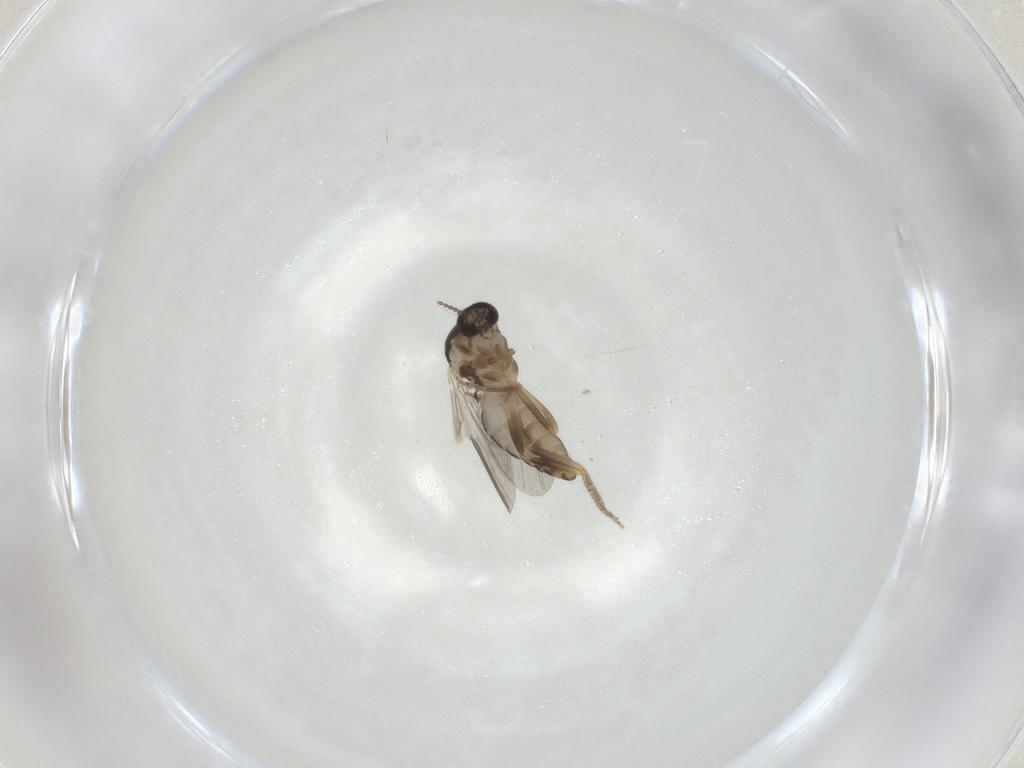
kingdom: Animalia
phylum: Arthropoda
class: Insecta
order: Diptera
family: Ceratopogonidae
